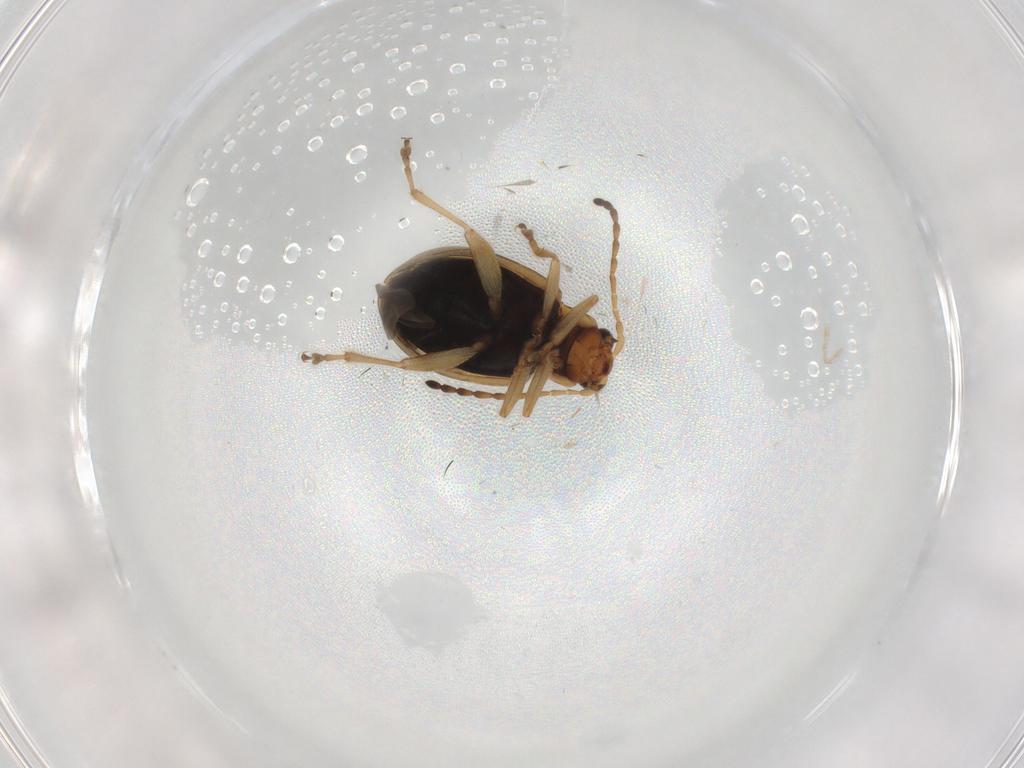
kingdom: Animalia
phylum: Arthropoda
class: Insecta
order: Coleoptera
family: Chrysomelidae
